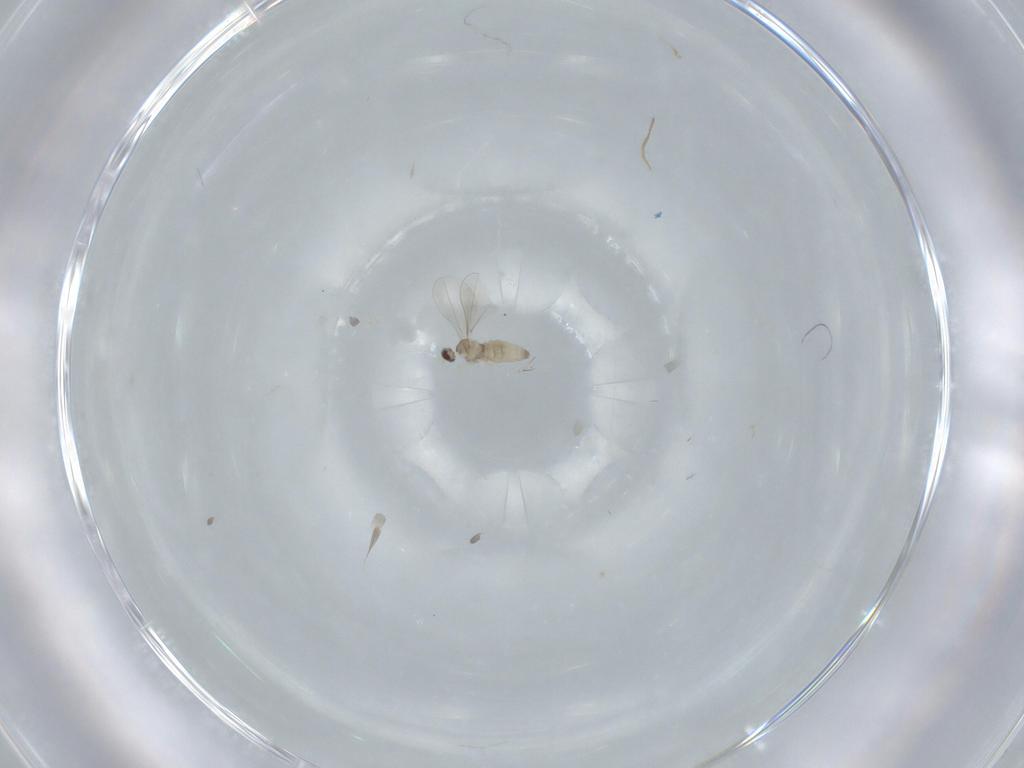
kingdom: Animalia
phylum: Arthropoda
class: Insecta
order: Diptera
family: Cecidomyiidae
